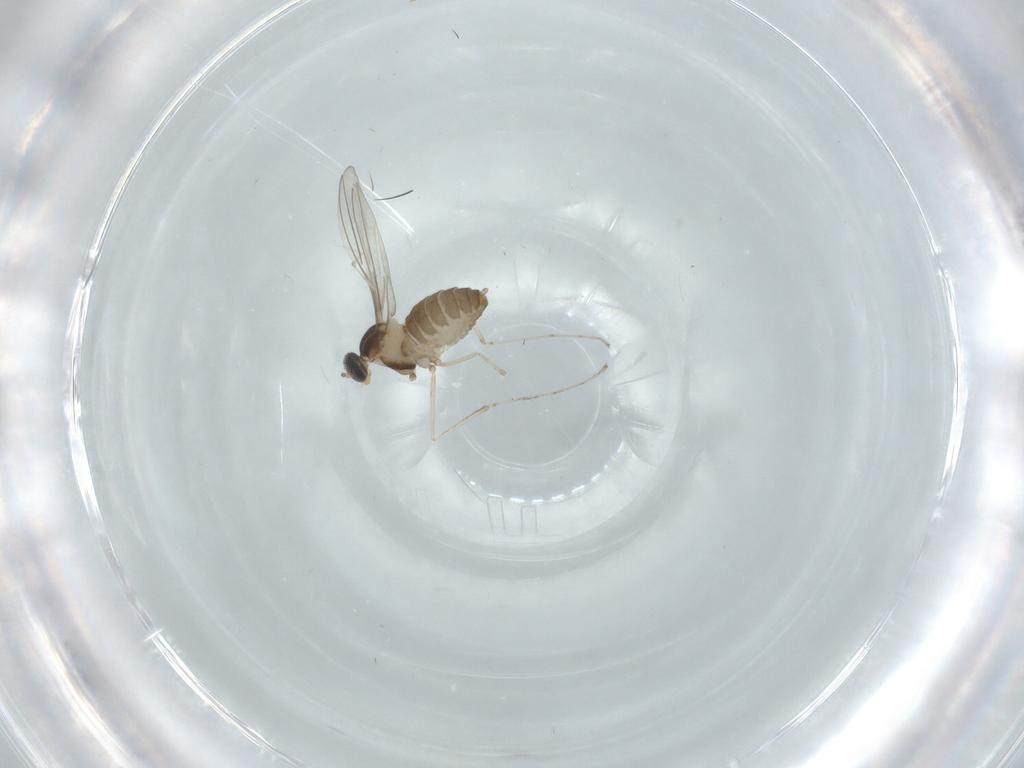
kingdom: Animalia
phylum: Arthropoda
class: Insecta
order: Diptera
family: Cecidomyiidae
